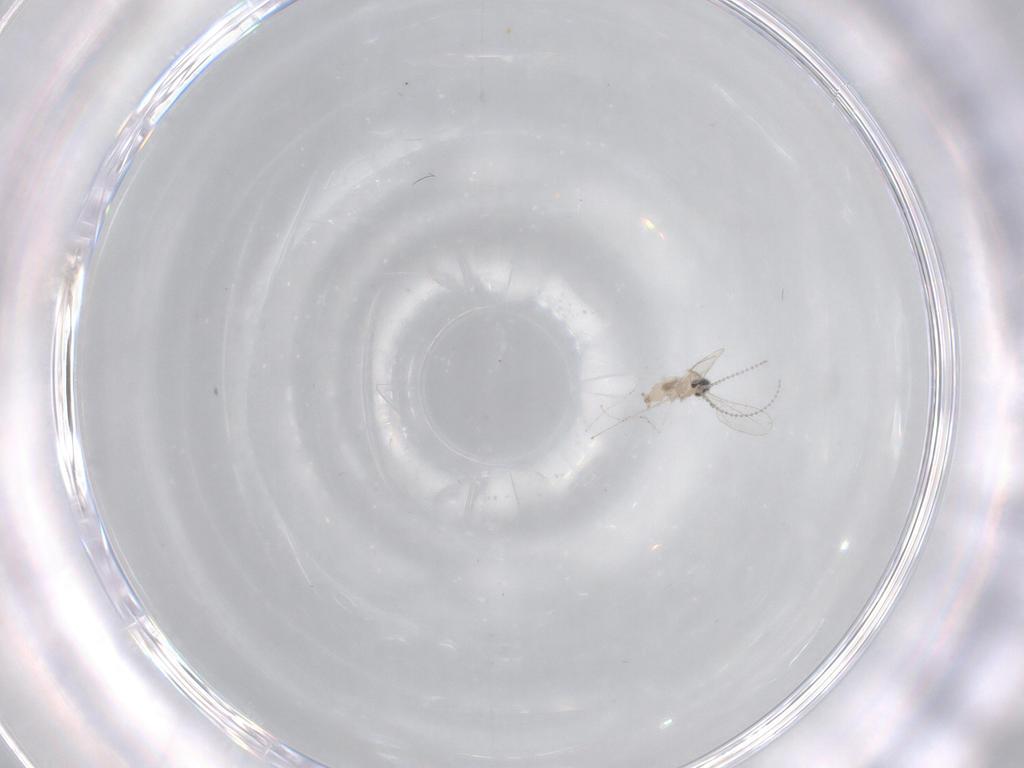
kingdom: Animalia
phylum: Arthropoda
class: Insecta
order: Diptera
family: Cecidomyiidae
